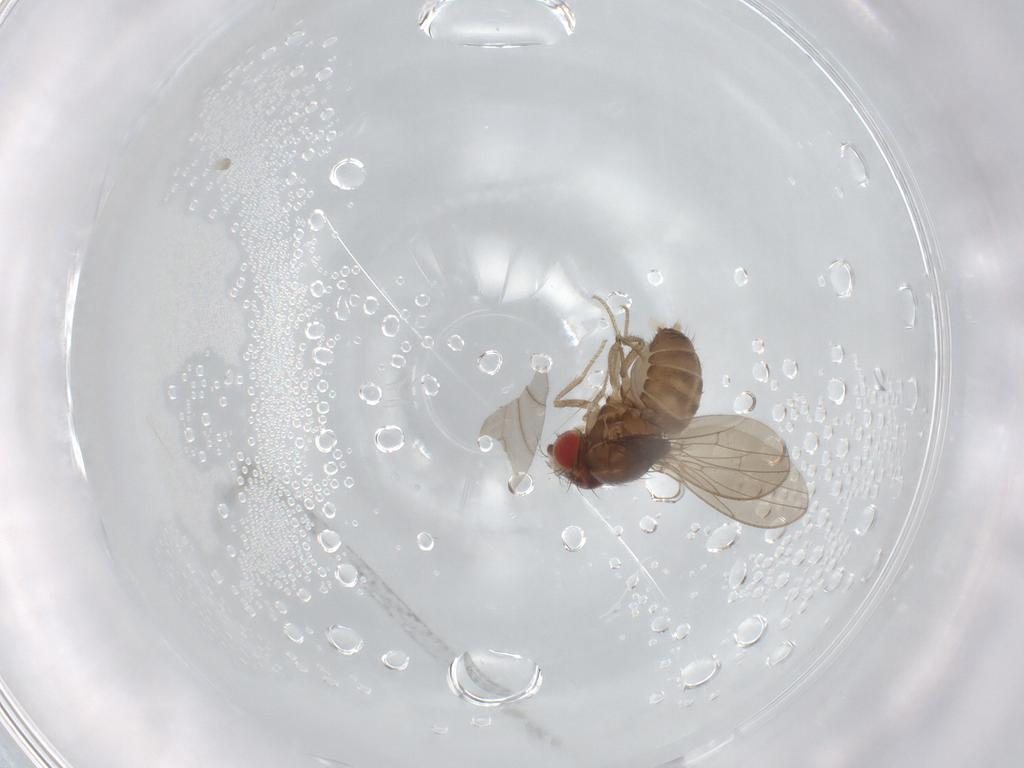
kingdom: Animalia
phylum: Arthropoda
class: Insecta
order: Diptera
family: Drosophilidae
